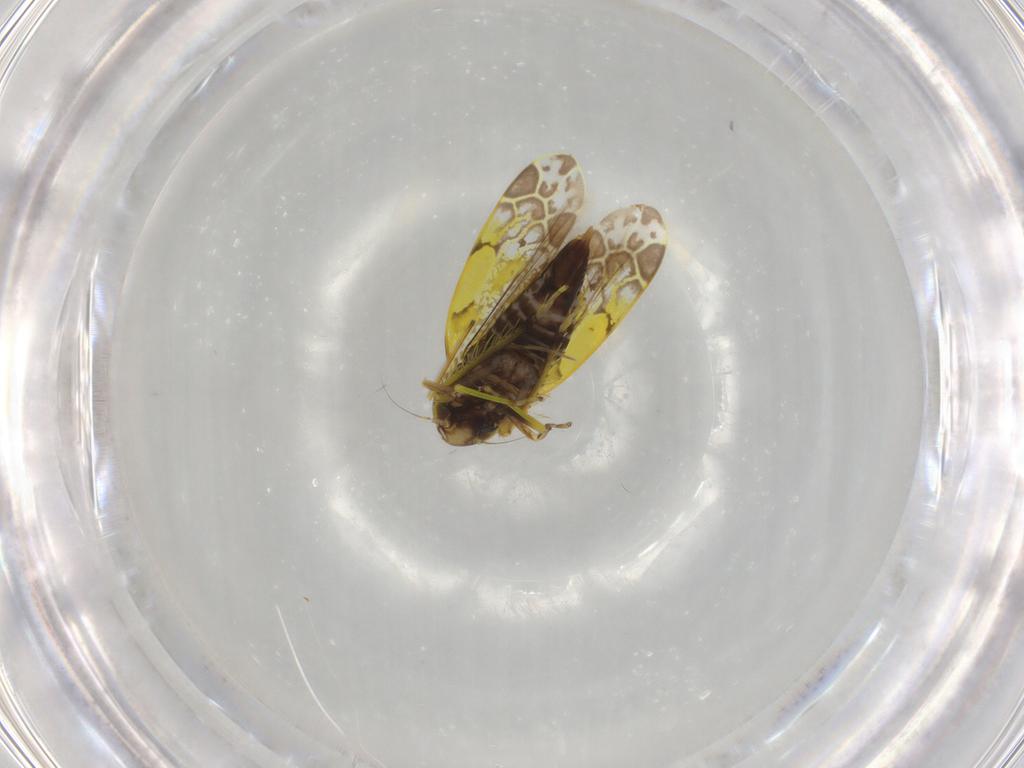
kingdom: Animalia
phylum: Arthropoda
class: Insecta
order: Hemiptera
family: Cicadellidae
